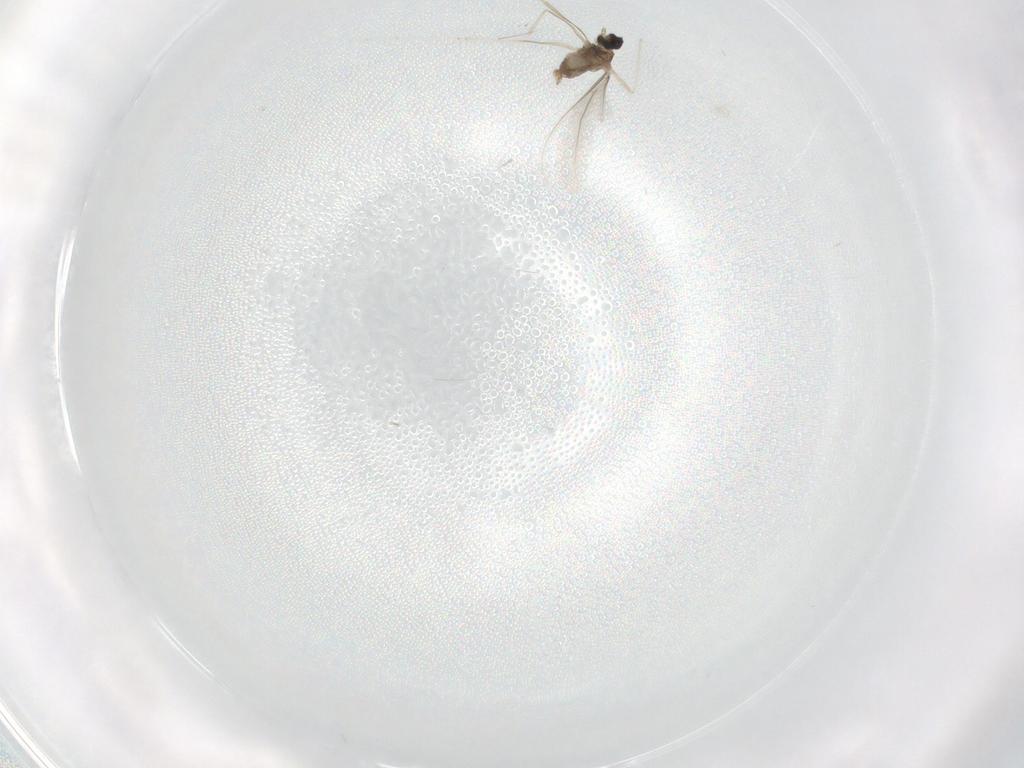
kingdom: Animalia
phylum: Arthropoda
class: Insecta
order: Diptera
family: Cecidomyiidae
